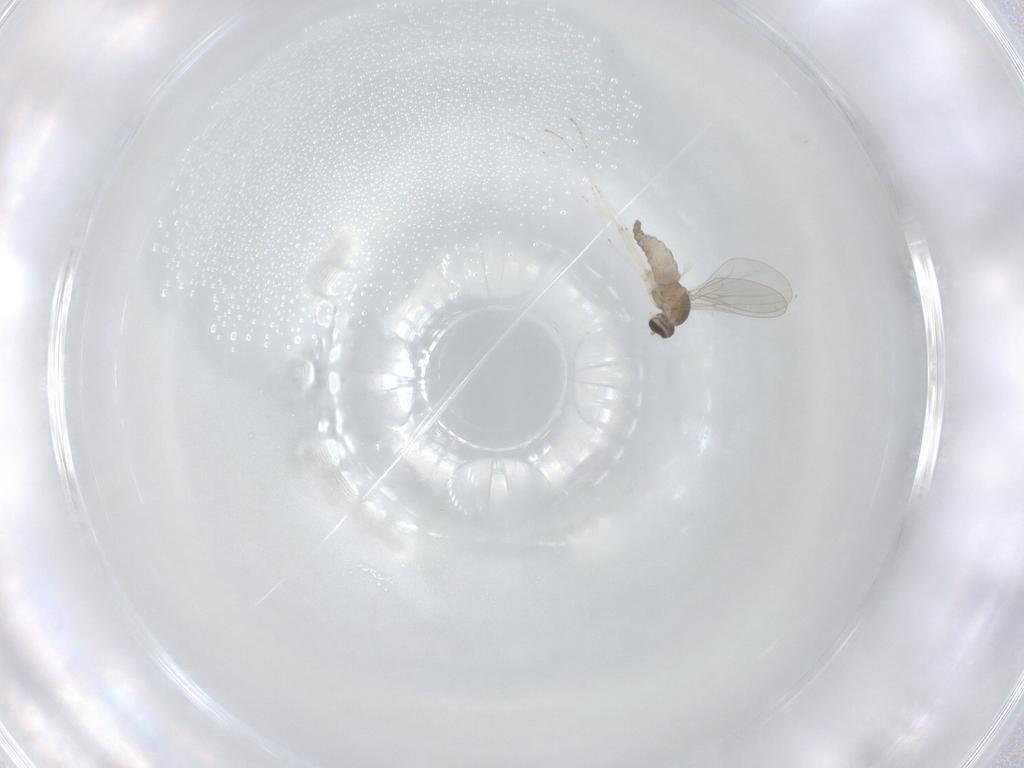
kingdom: Animalia
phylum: Arthropoda
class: Insecta
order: Diptera
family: Cecidomyiidae
